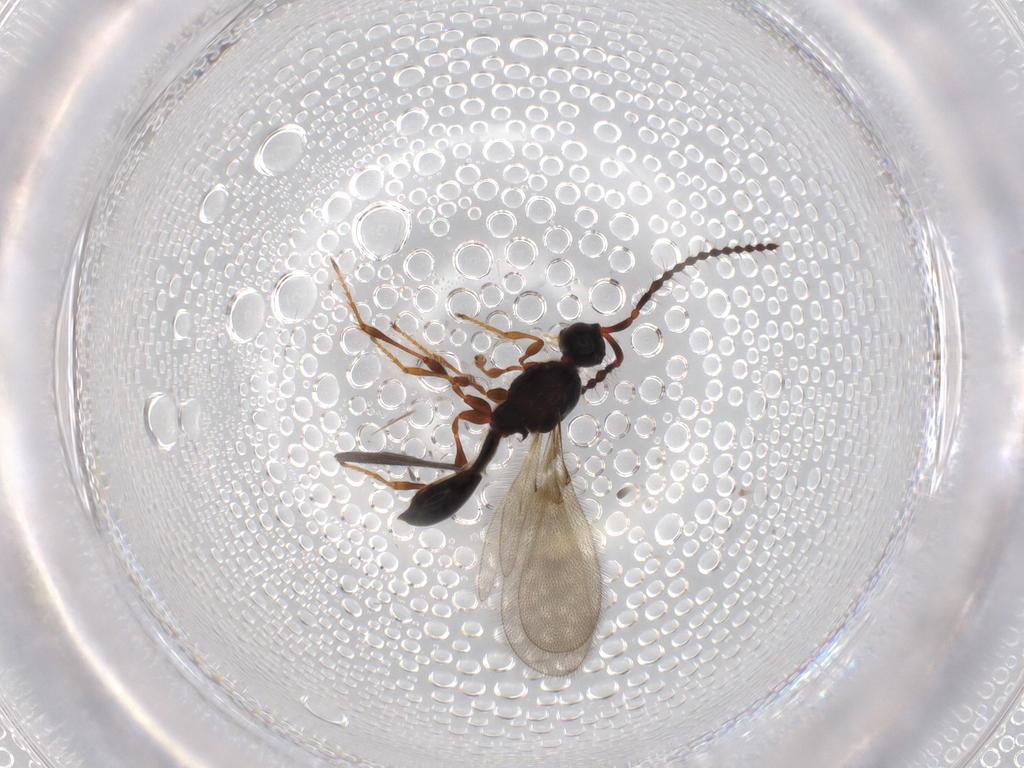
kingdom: Animalia
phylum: Arthropoda
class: Insecta
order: Hymenoptera
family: Diapriidae
